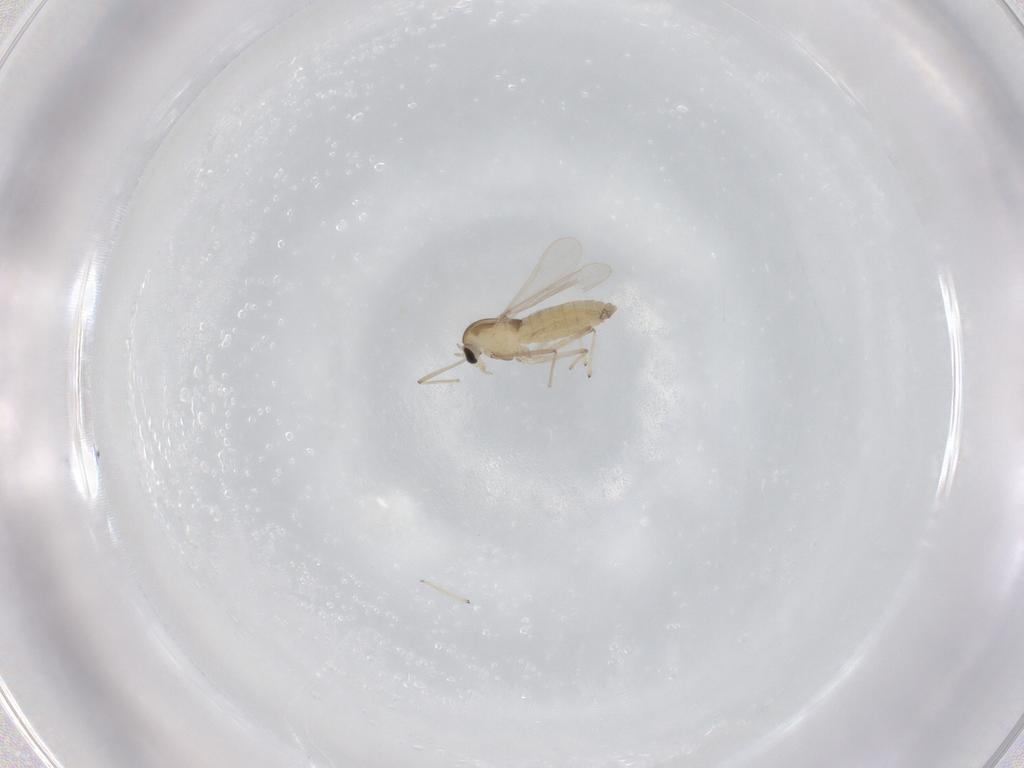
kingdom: Animalia
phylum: Arthropoda
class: Insecta
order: Diptera
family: Chironomidae
